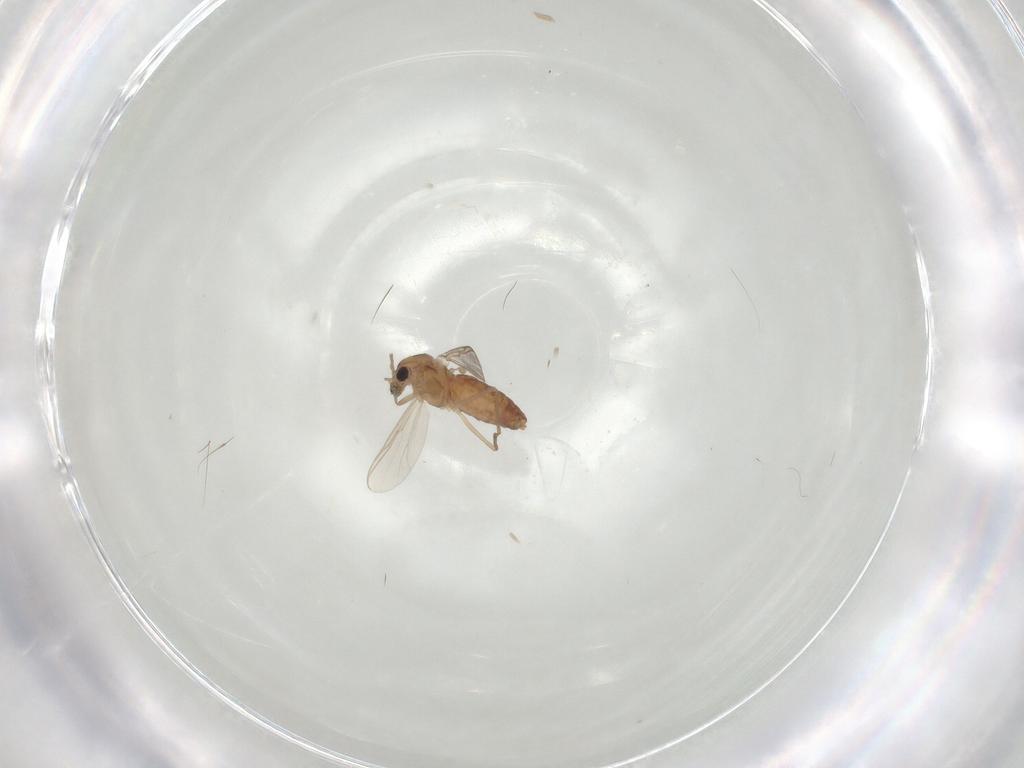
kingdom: Animalia
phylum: Arthropoda
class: Insecta
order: Diptera
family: Chironomidae
